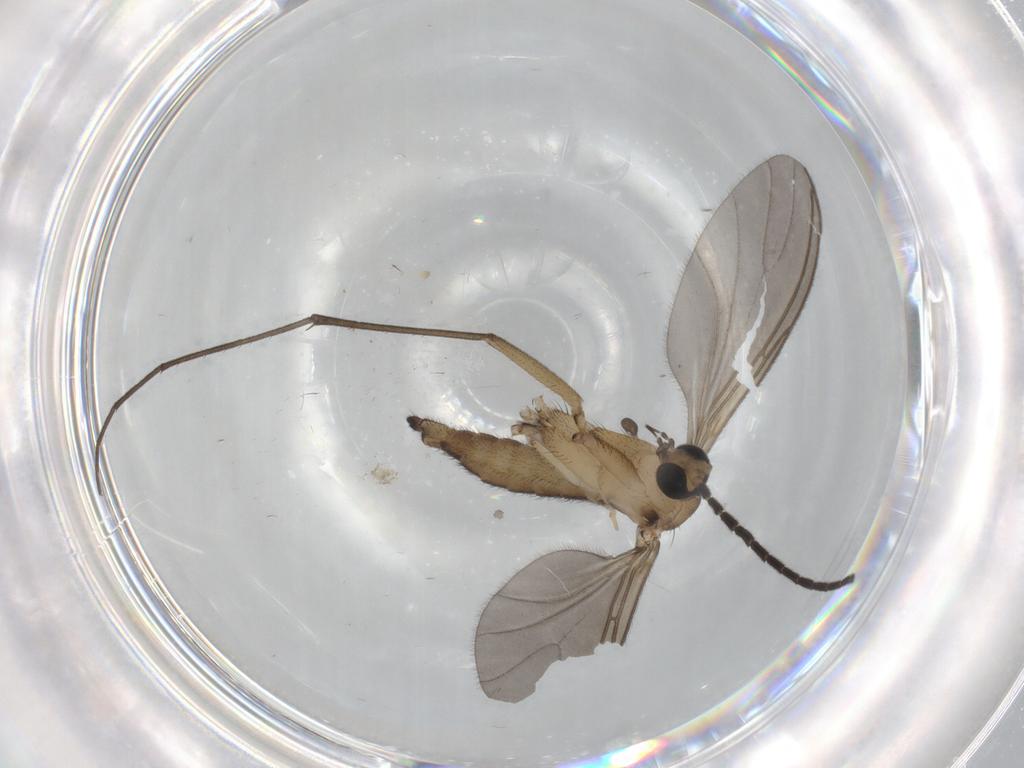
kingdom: Animalia
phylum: Arthropoda
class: Insecta
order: Diptera
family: Sciaridae
